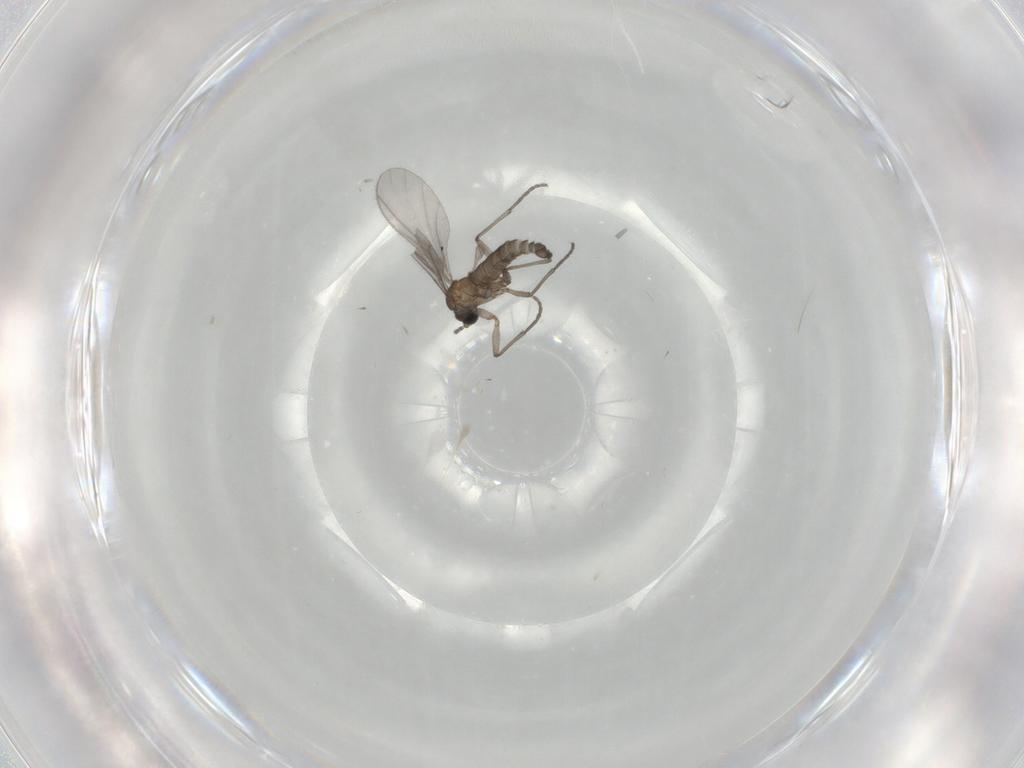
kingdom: Animalia
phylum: Arthropoda
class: Insecta
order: Diptera
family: Sciaridae
